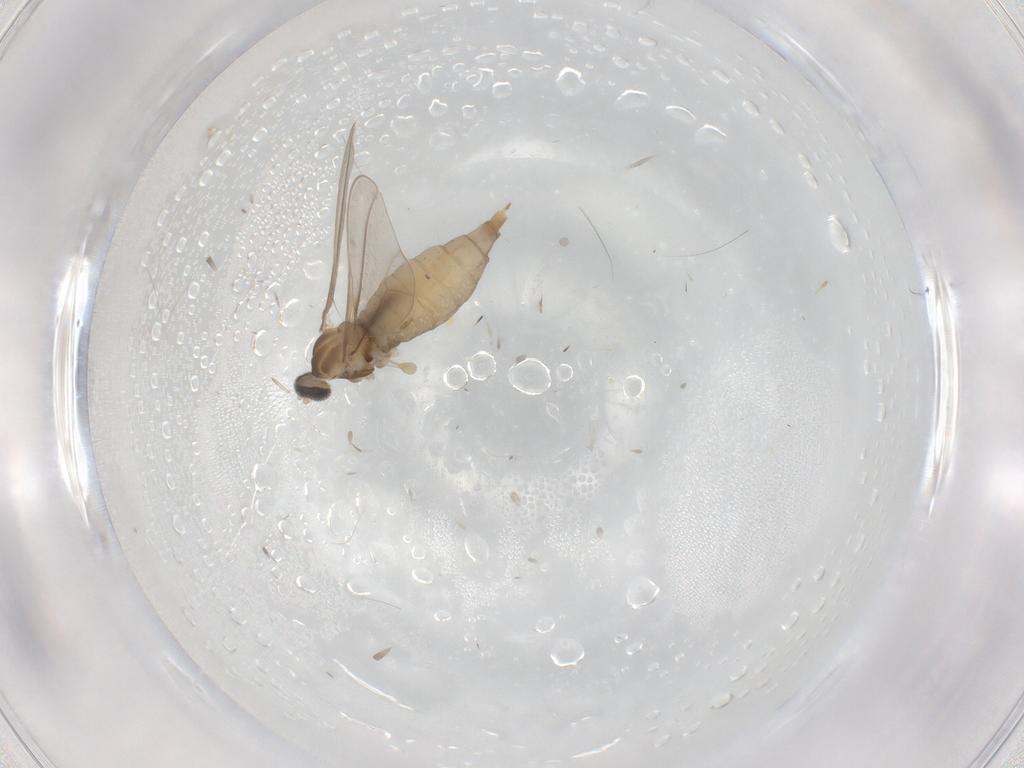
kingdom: Animalia
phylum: Arthropoda
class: Insecta
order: Diptera
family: Cecidomyiidae
